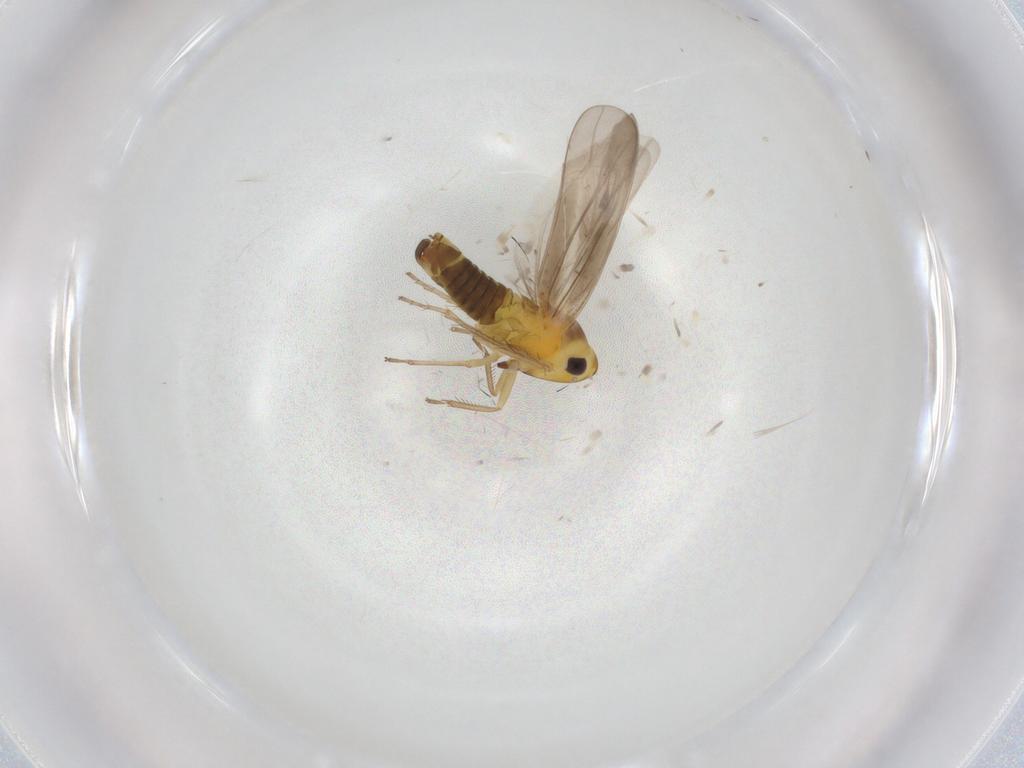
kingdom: Animalia
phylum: Arthropoda
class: Insecta
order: Hemiptera
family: Cicadellidae
